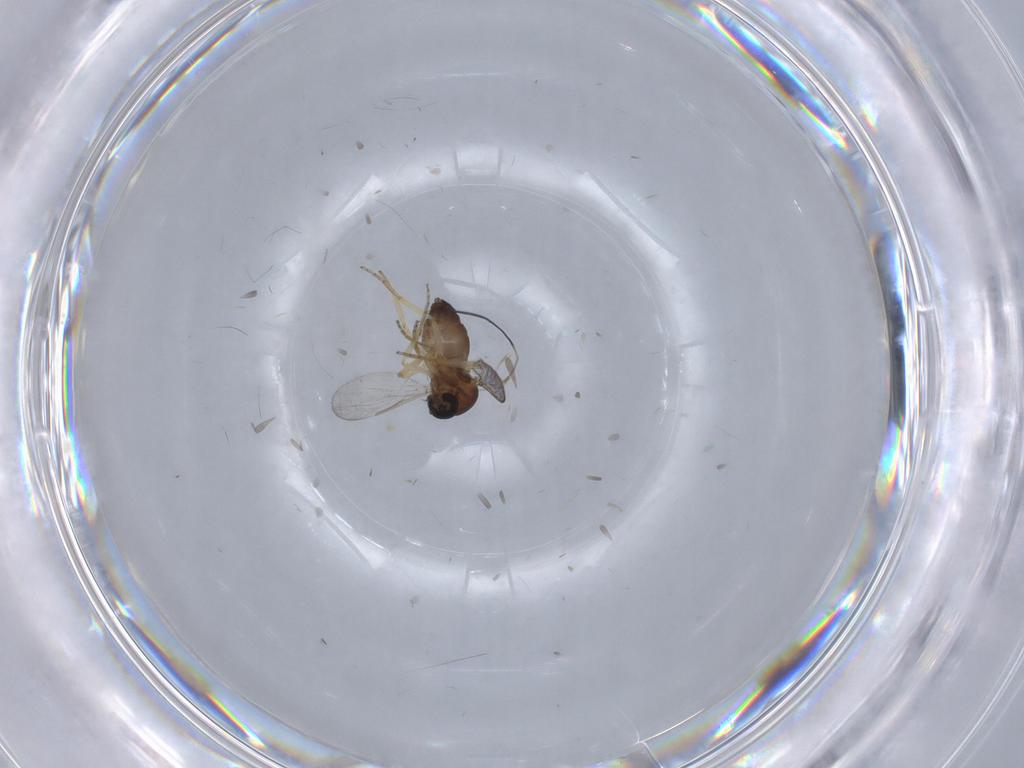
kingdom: Animalia
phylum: Arthropoda
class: Insecta
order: Diptera
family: Ceratopogonidae
